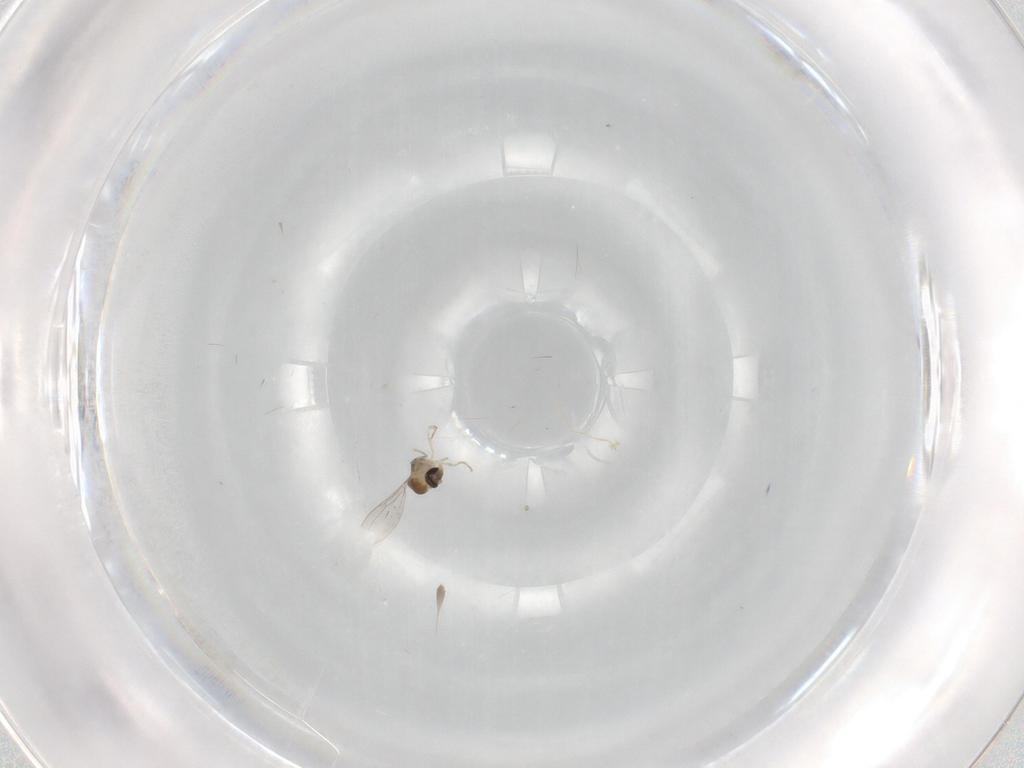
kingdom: Animalia
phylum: Arthropoda
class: Insecta
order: Diptera
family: Cecidomyiidae
